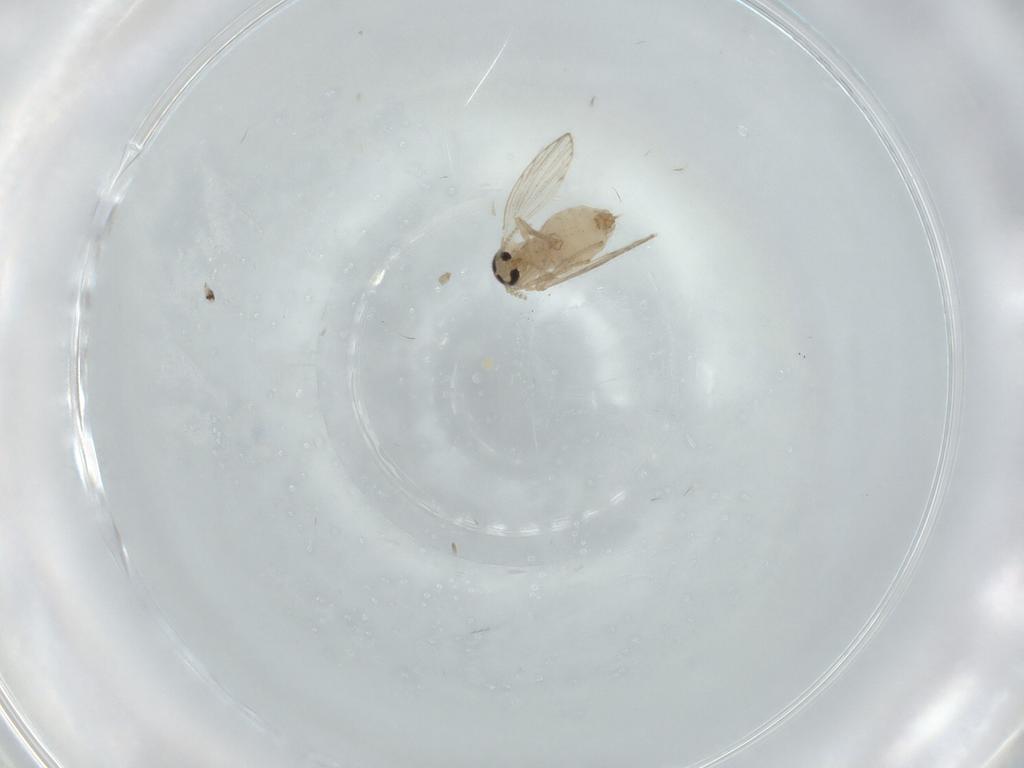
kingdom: Animalia
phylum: Arthropoda
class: Insecta
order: Diptera
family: Psychodidae
